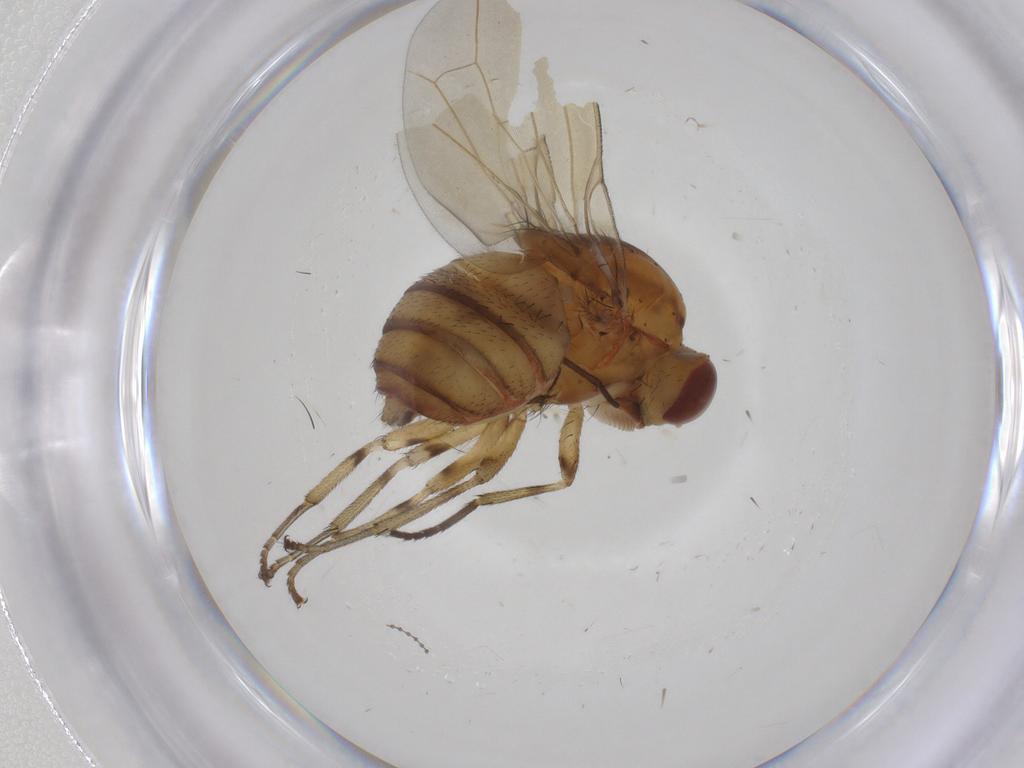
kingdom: Animalia
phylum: Arthropoda
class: Insecta
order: Diptera
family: Sciaridae
